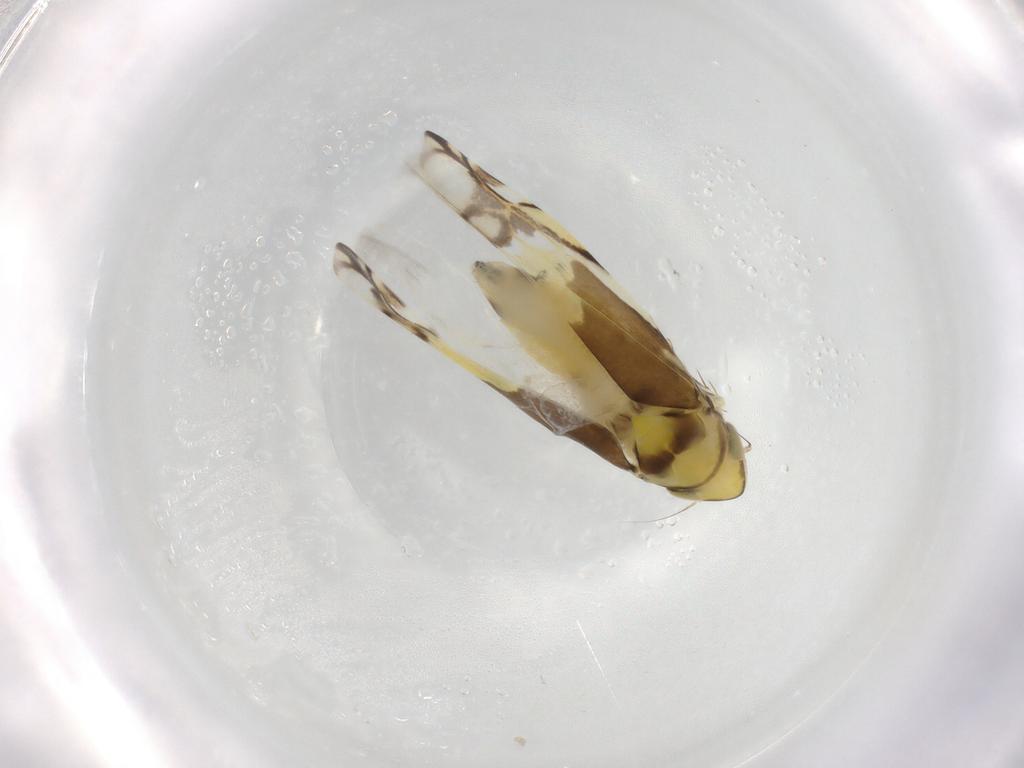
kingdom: Animalia
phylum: Arthropoda
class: Insecta
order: Hemiptera
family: Cicadellidae
